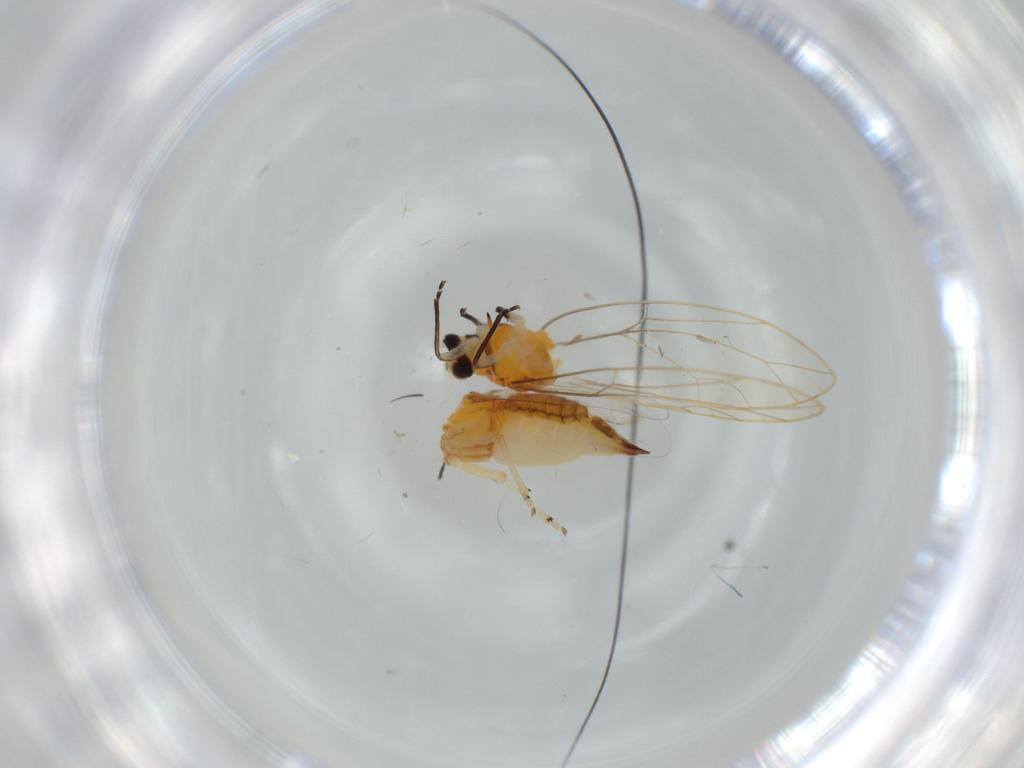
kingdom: Animalia
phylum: Arthropoda
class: Insecta
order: Hemiptera
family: Triozidae
